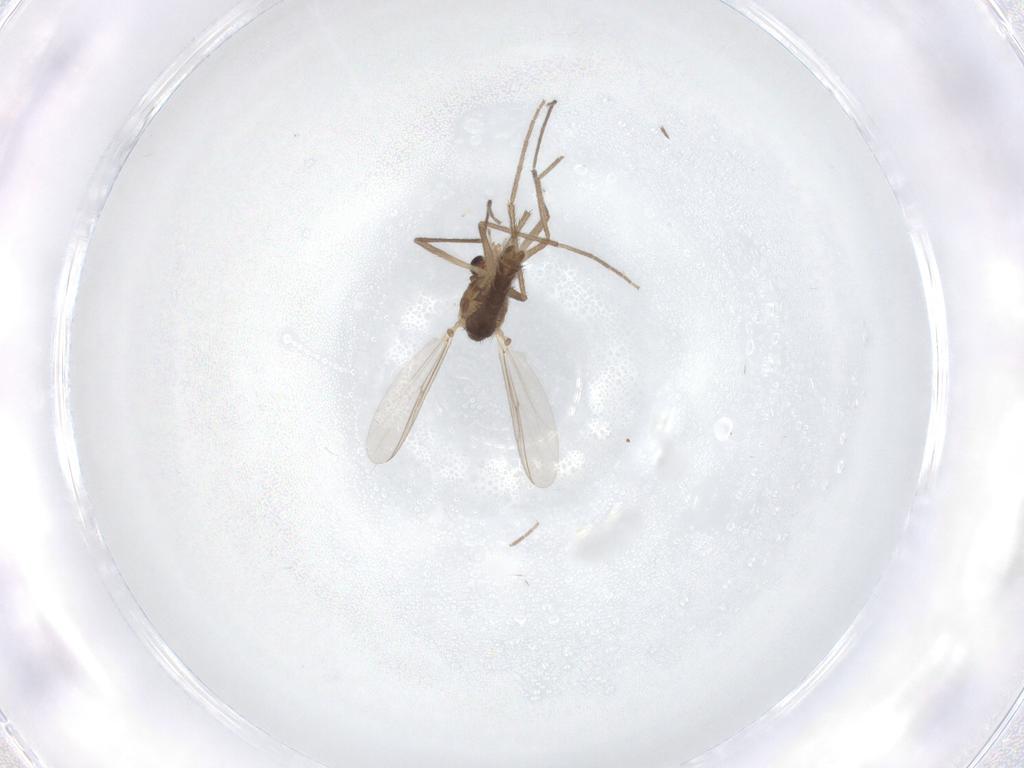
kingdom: Animalia
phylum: Arthropoda
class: Insecta
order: Diptera
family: Chironomidae
